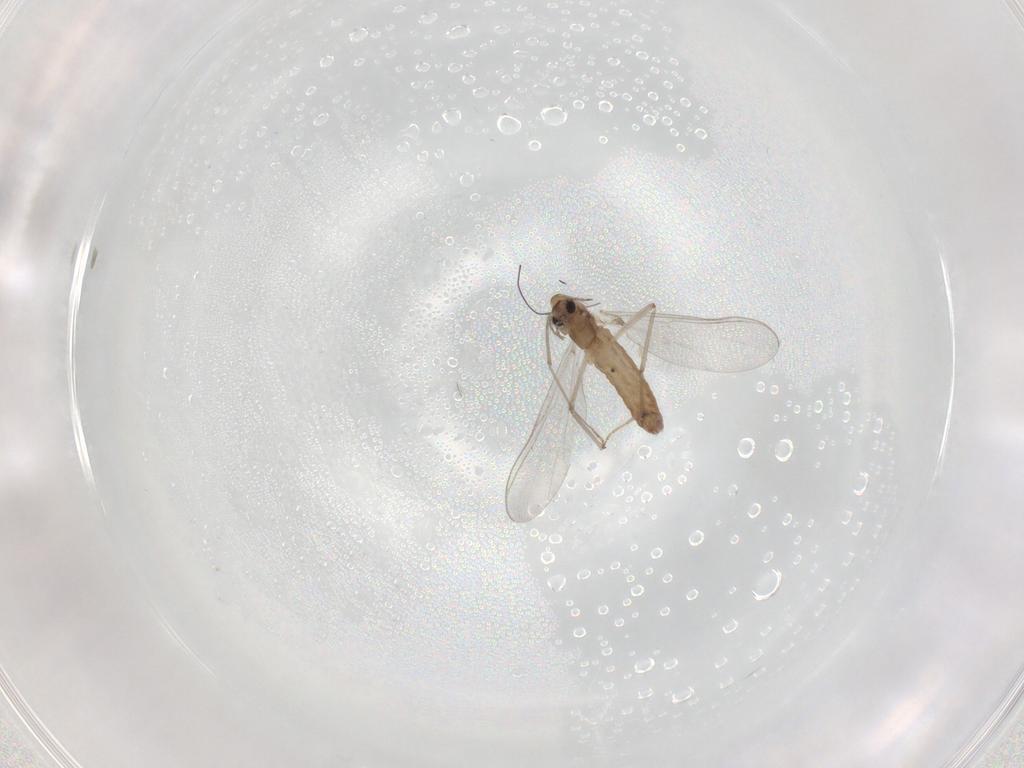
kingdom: Animalia
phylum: Arthropoda
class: Insecta
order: Diptera
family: Chironomidae
